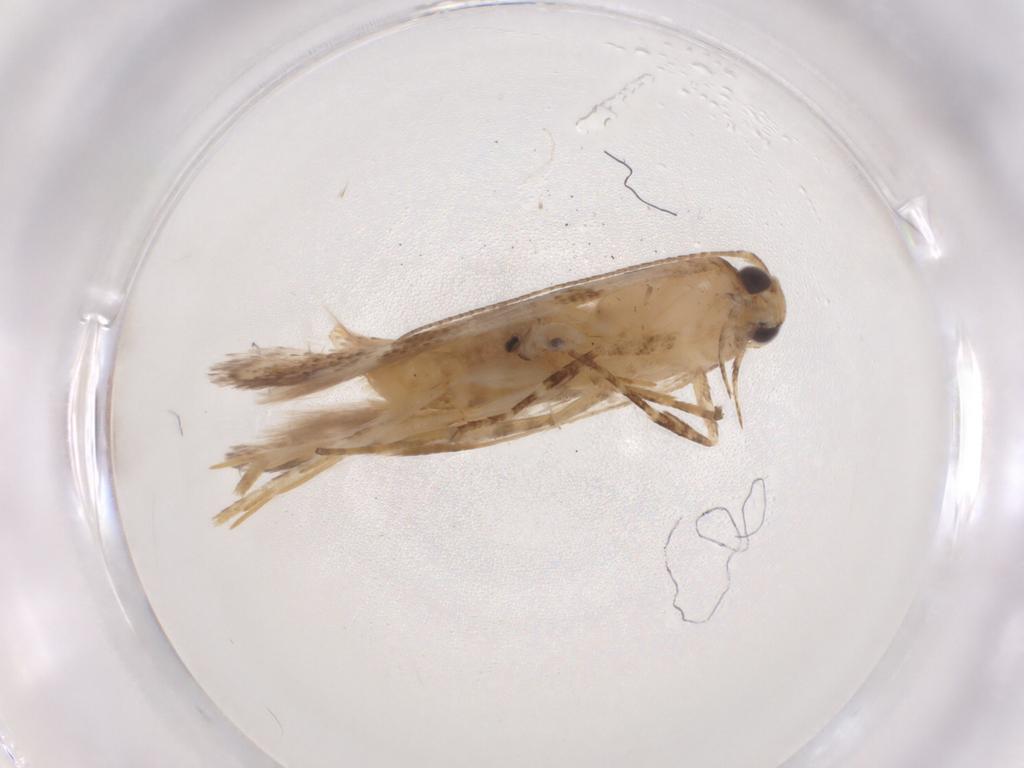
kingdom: Animalia
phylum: Arthropoda
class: Insecta
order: Lepidoptera
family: Gelechiidae
